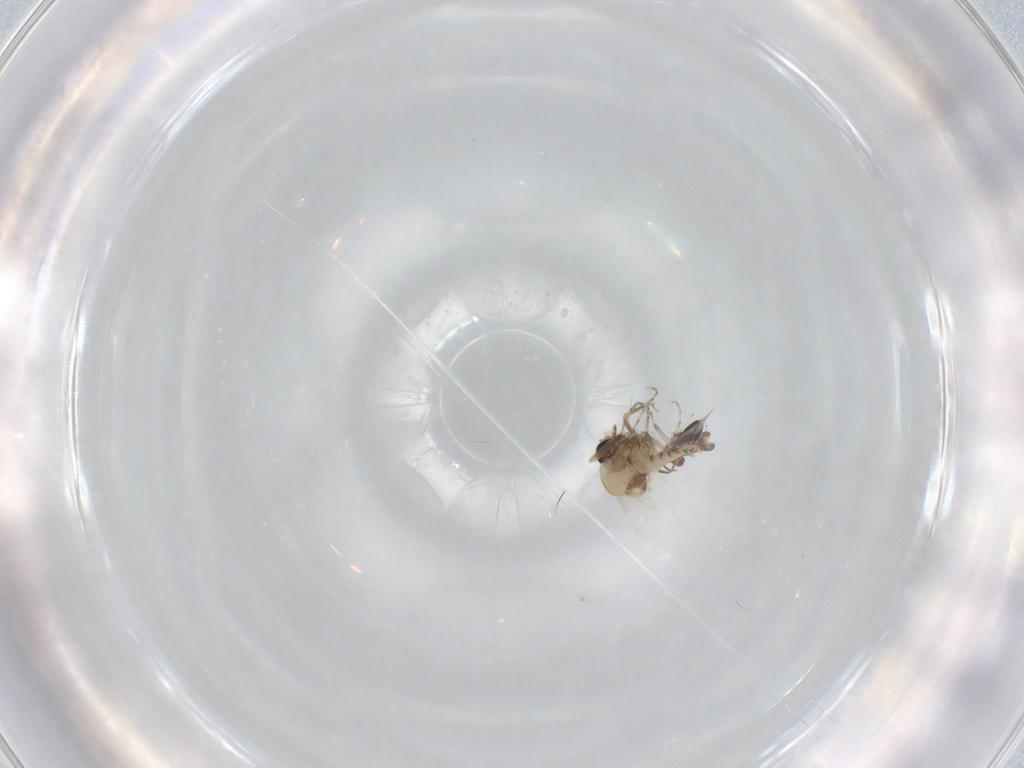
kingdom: Animalia
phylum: Arthropoda
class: Insecta
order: Diptera
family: Ceratopogonidae
